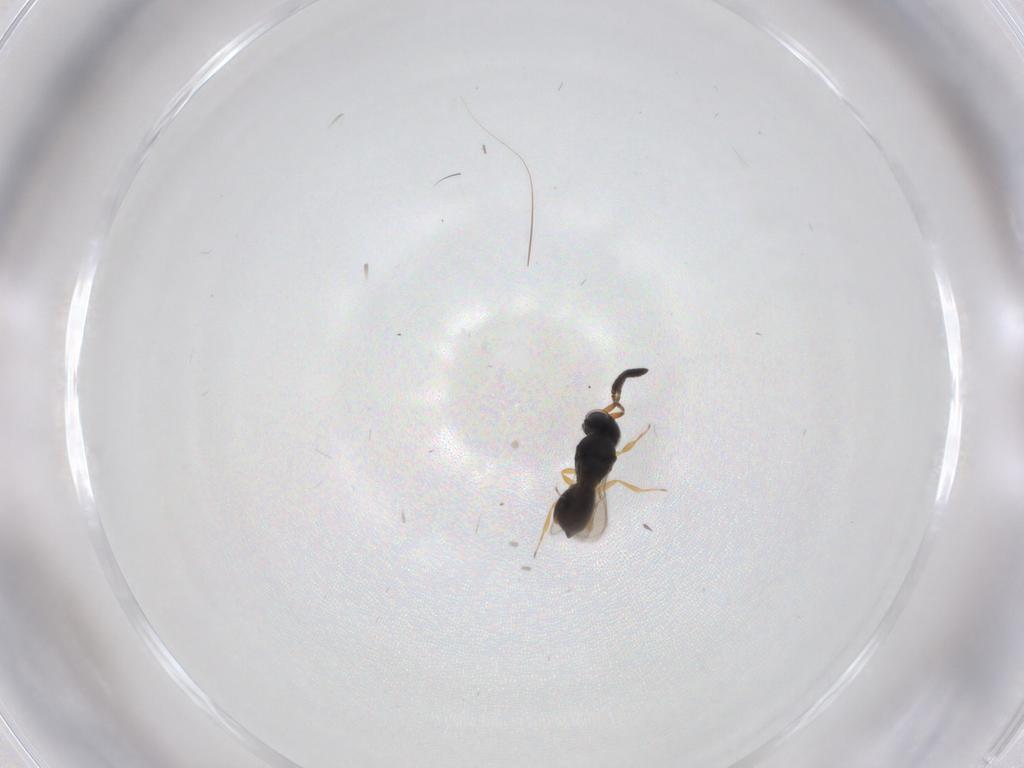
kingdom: Animalia
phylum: Arthropoda
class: Insecta
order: Hymenoptera
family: Scelionidae
